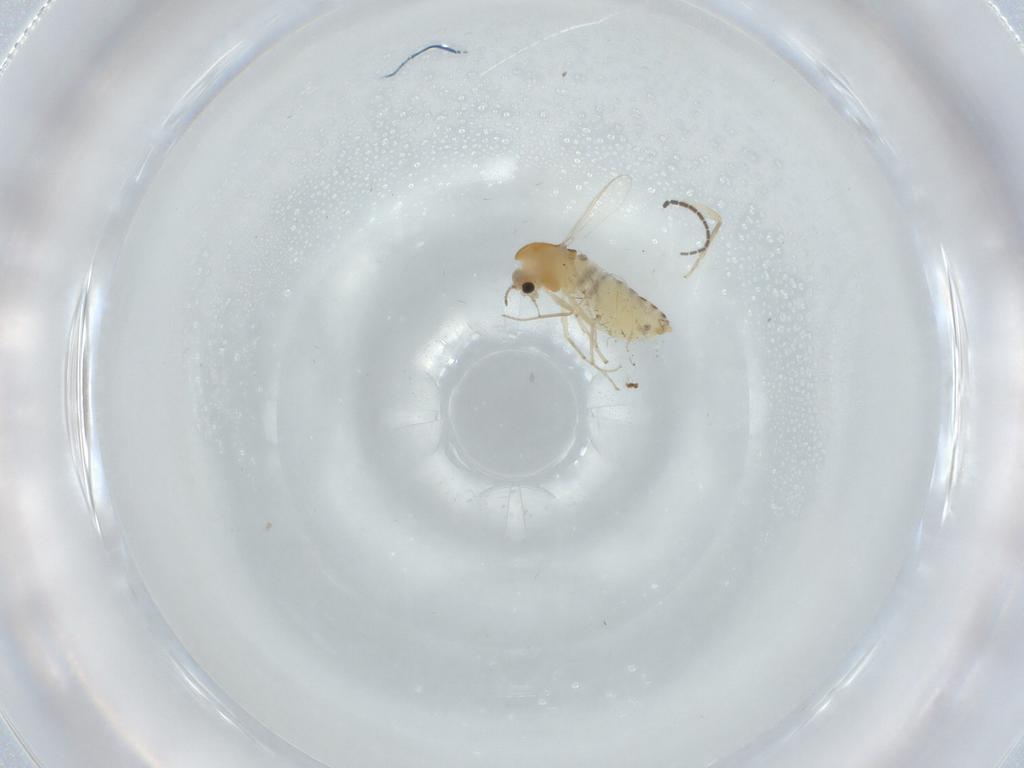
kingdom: Animalia
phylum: Arthropoda
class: Insecta
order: Diptera
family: Chironomidae
